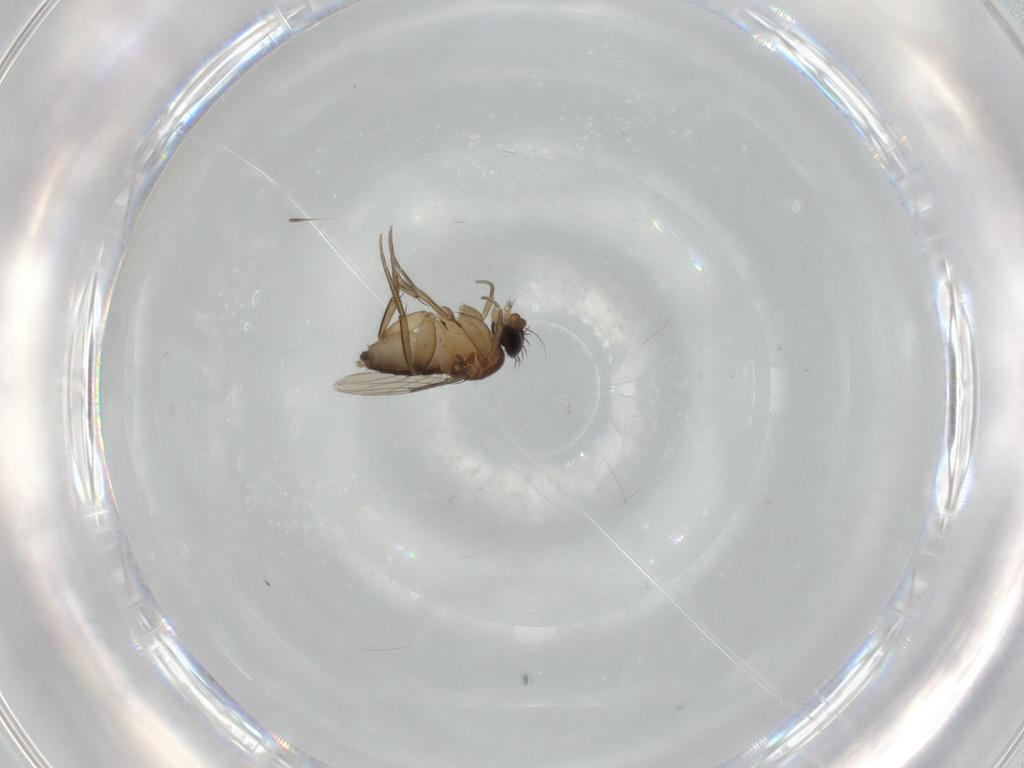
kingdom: Animalia
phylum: Arthropoda
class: Insecta
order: Diptera
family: Phoridae
